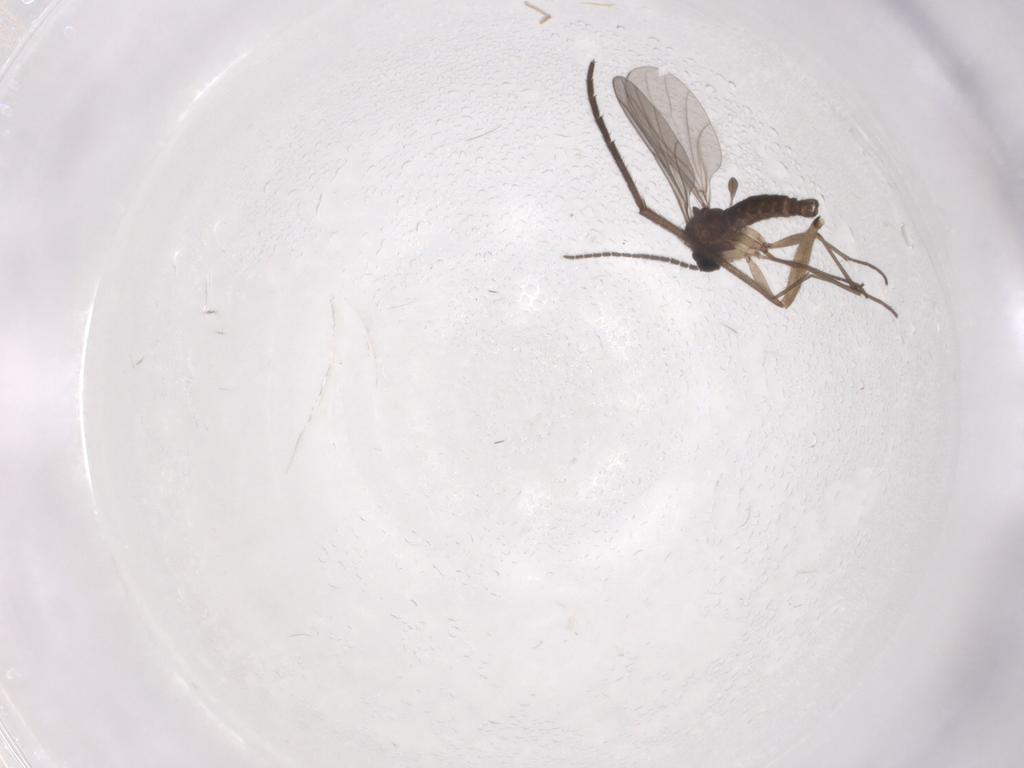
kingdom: Animalia
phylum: Arthropoda
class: Insecta
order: Diptera
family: Sciaridae
